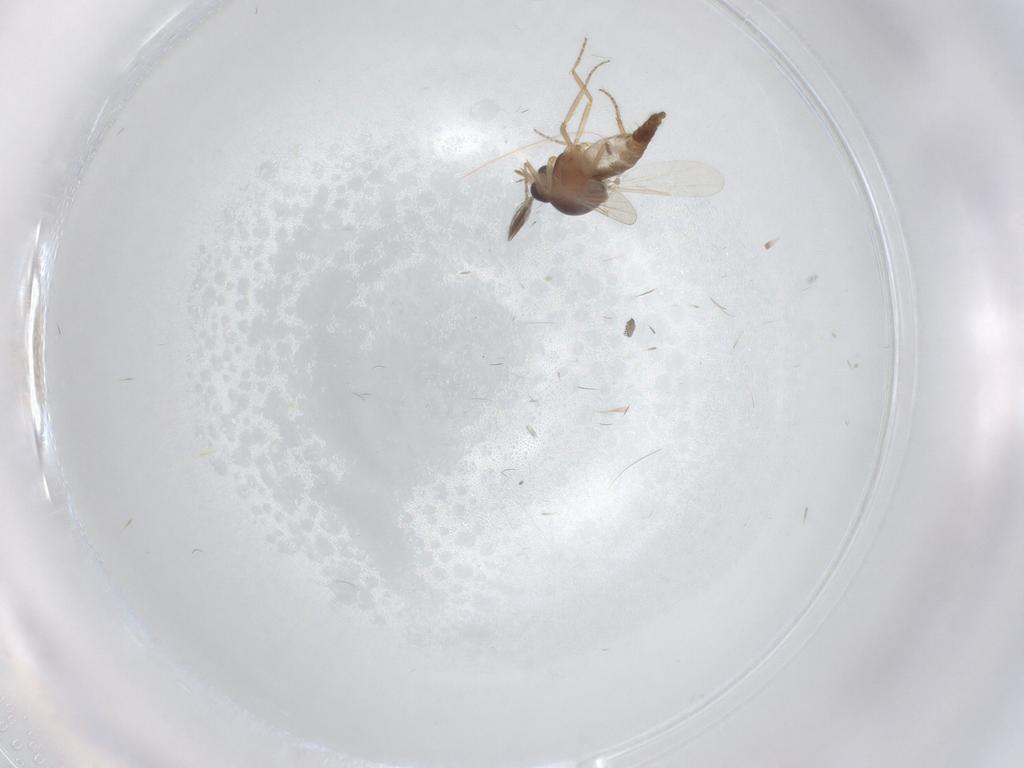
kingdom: Animalia
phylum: Arthropoda
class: Insecta
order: Diptera
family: Ceratopogonidae
